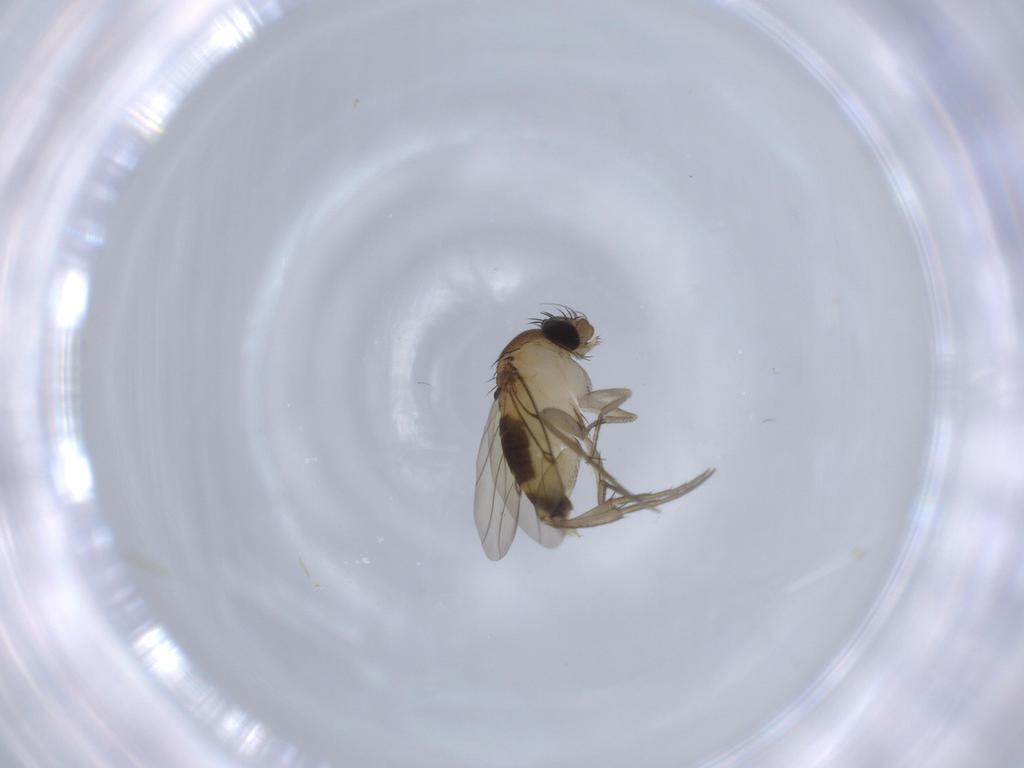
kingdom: Animalia
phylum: Arthropoda
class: Insecta
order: Diptera
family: Phoridae
